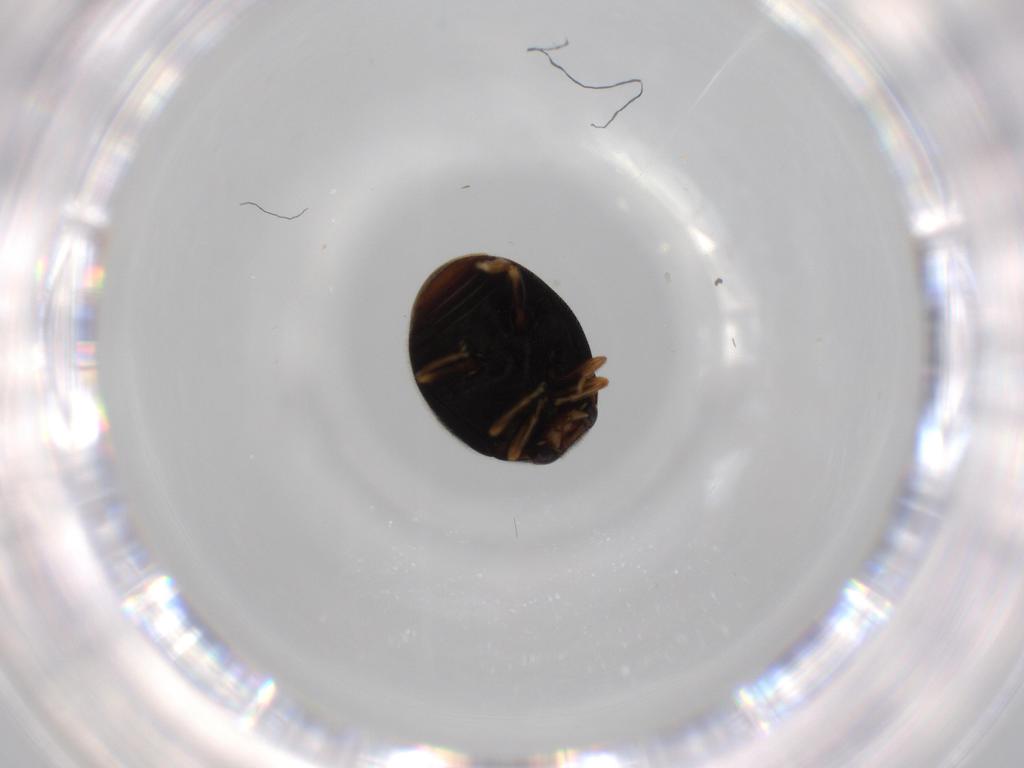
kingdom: Animalia
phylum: Arthropoda
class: Insecta
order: Coleoptera
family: Coccinellidae
